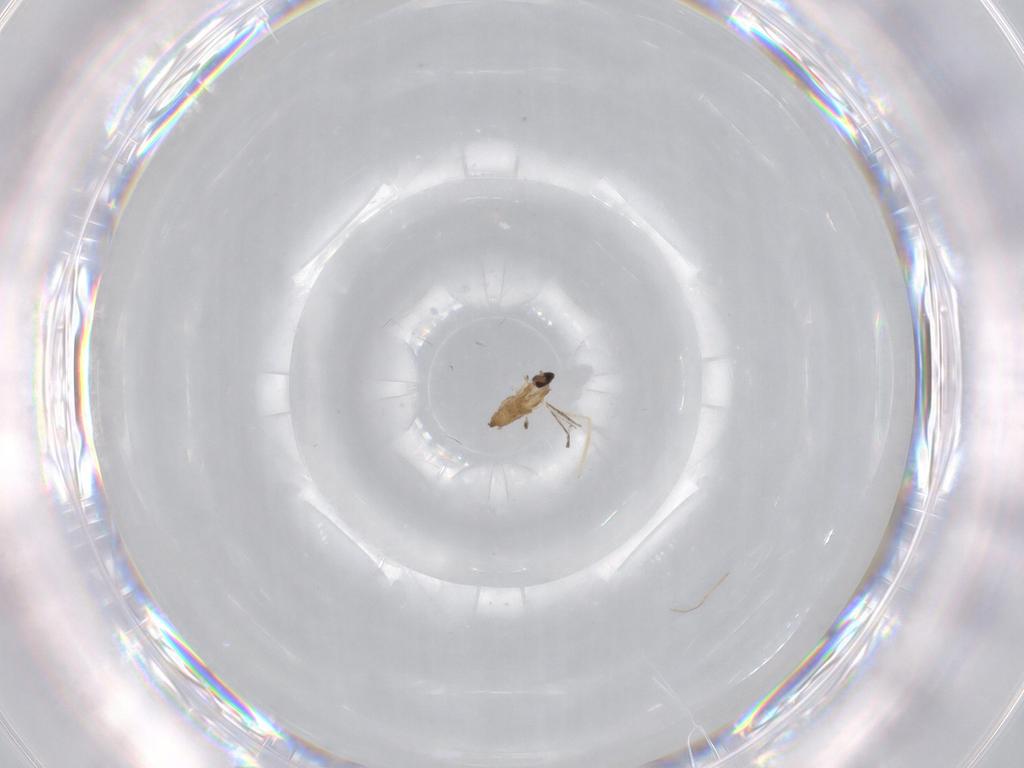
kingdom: Animalia
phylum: Arthropoda
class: Insecta
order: Diptera
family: Chironomidae
